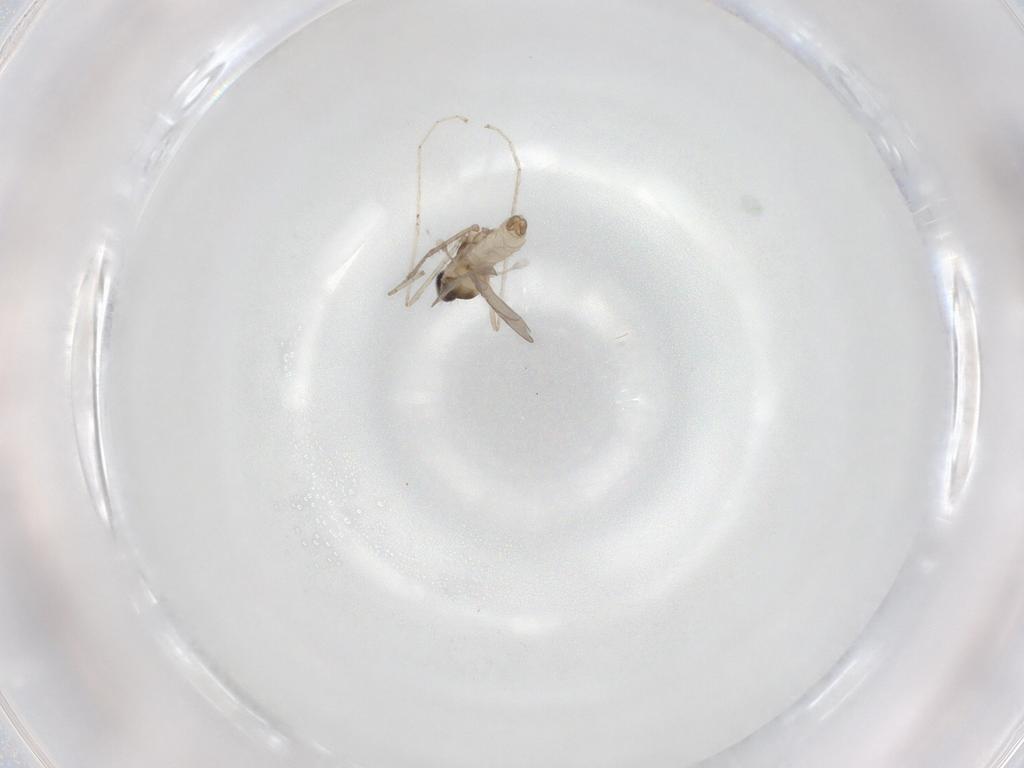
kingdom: Animalia
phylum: Arthropoda
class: Insecta
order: Diptera
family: Cecidomyiidae
